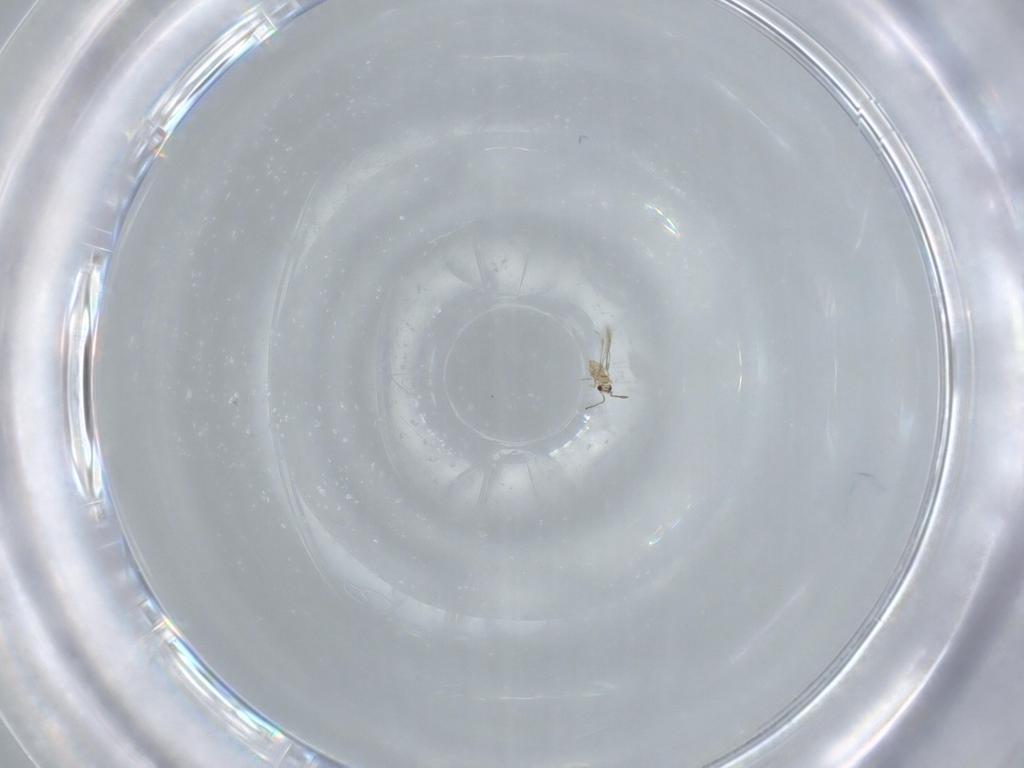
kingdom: Animalia
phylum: Arthropoda
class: Insecta
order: Hymenoptera
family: Mymaridae
